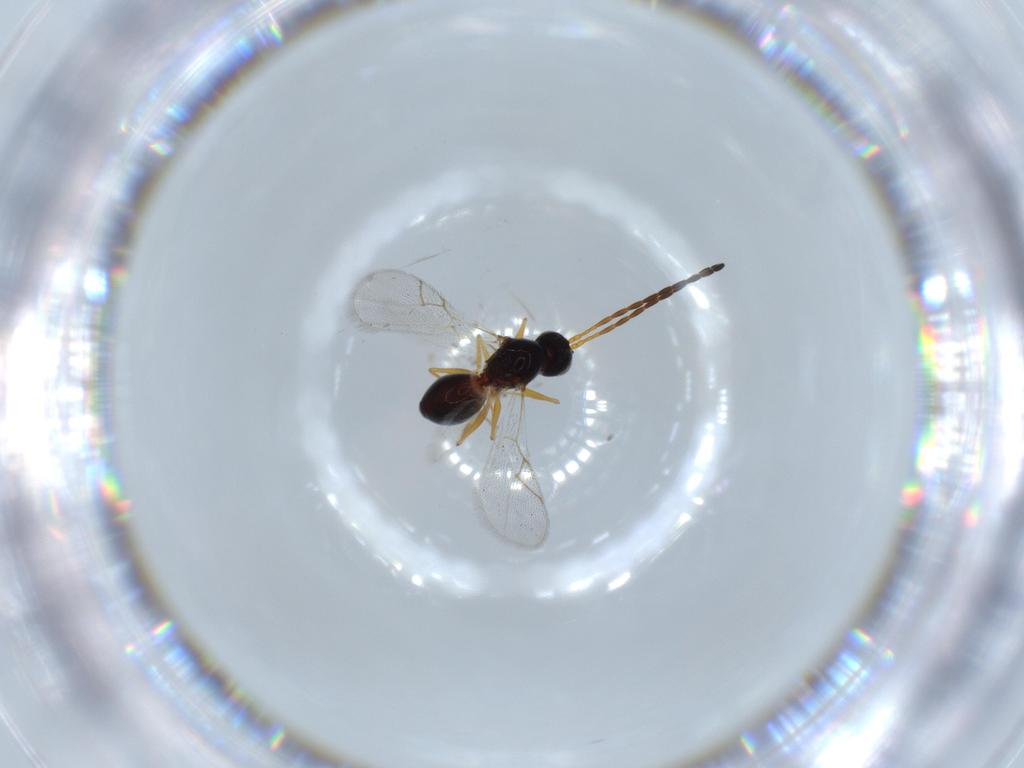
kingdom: Animalia
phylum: Arthropoda
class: Insecta
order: Hymenoptera
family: Figitidae
